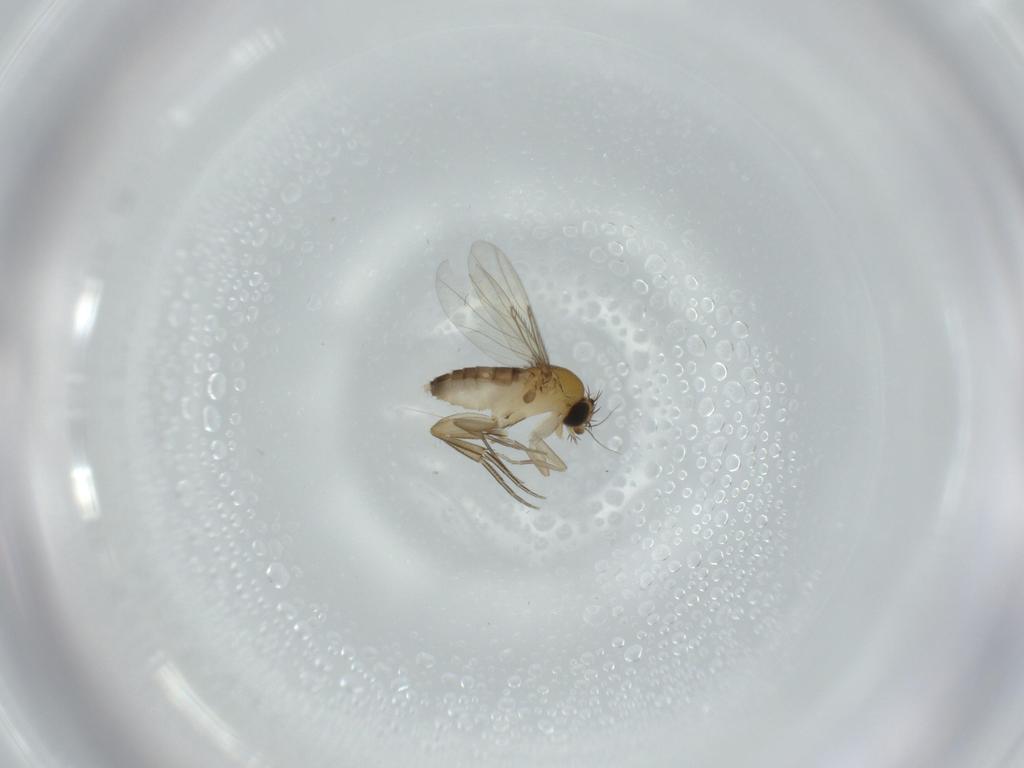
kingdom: Animalia
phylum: Arthropoda
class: Insecta
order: Diptera
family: Phoridae
